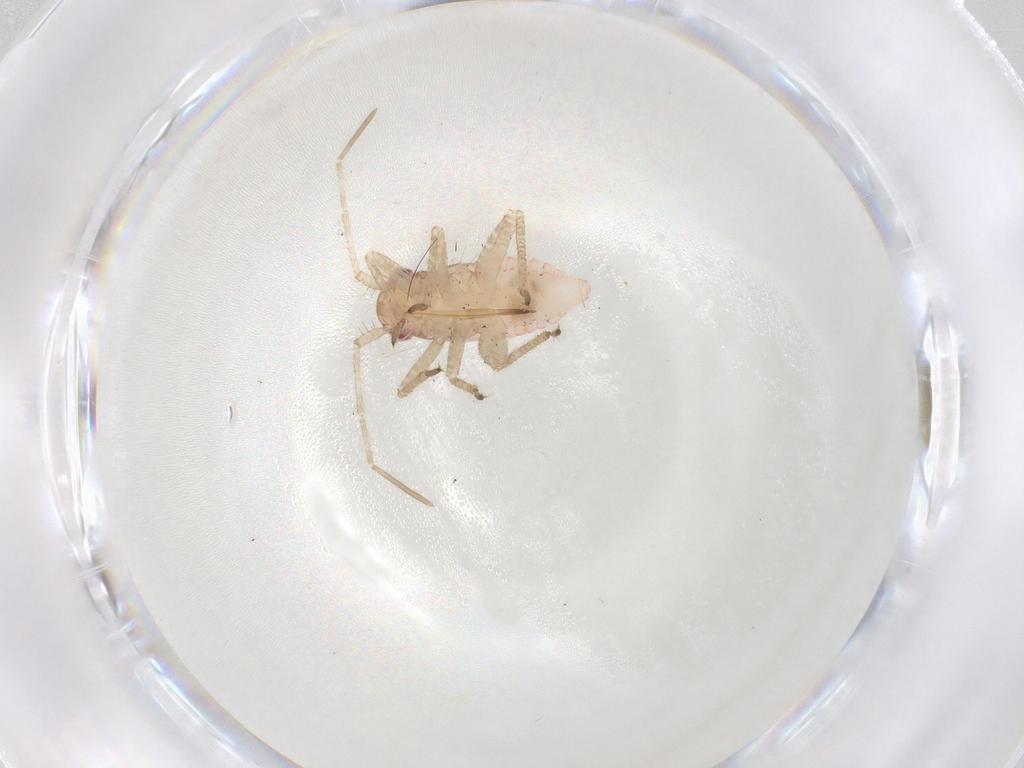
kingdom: Animalia
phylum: Arthropoda
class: Insecta
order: Hemiptera
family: Miridae
